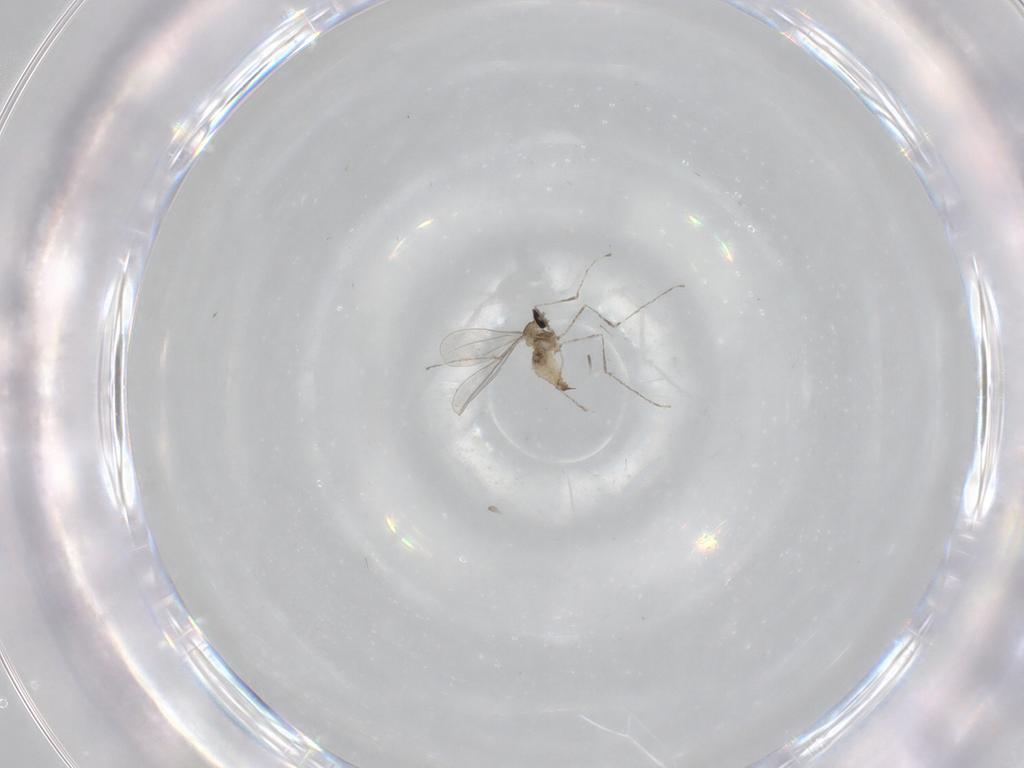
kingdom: Animalia
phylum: Arthropoda
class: Insecta
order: Diptera
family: Cecidomyiidae
